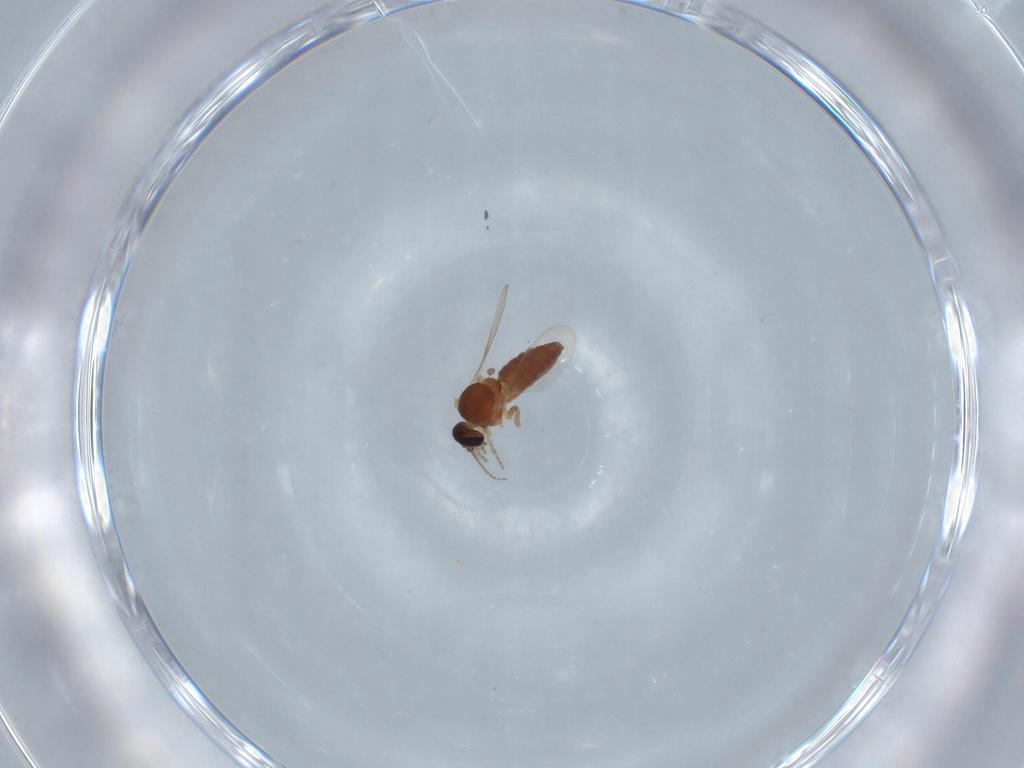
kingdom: Animalia
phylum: Arthropoda
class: Insecta
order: Diptera
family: Ceratopogonidae
